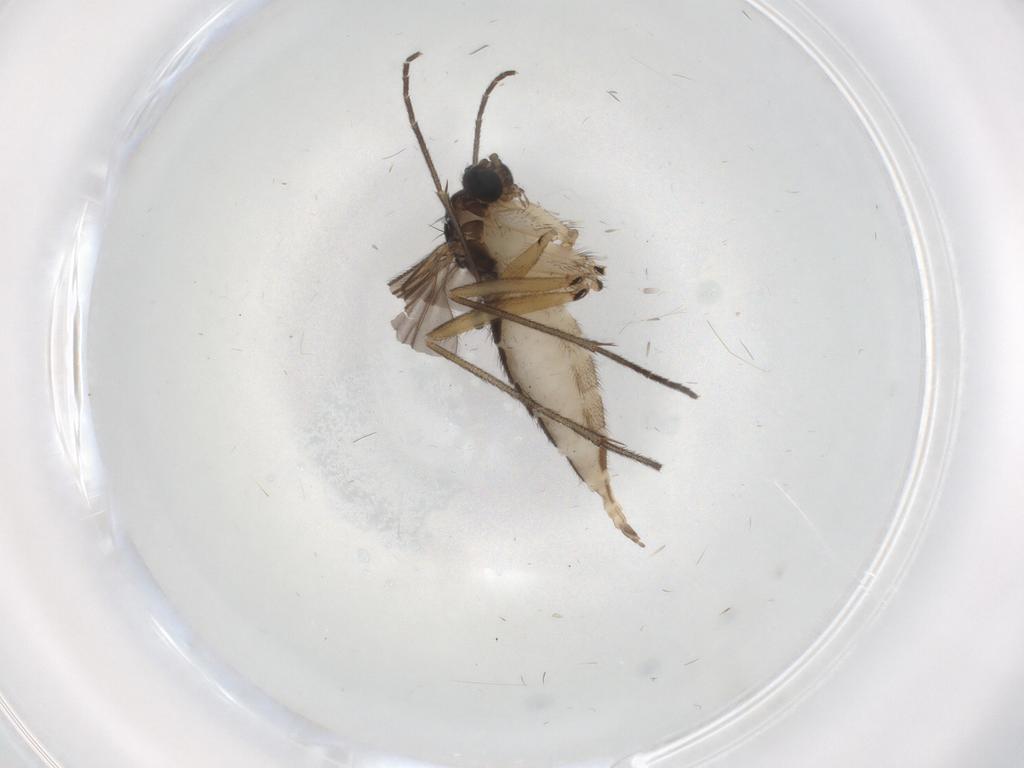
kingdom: Animalia
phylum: Arthropoda
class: Insecta
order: Diptera
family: Sciaridae
